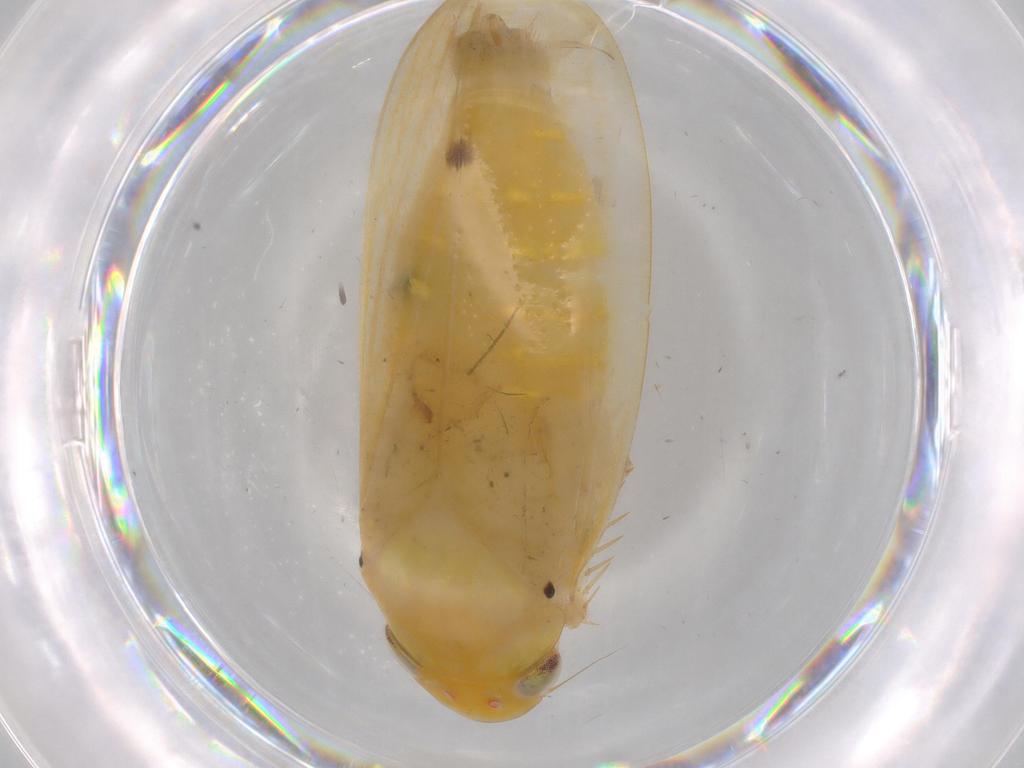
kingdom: Animalia
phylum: Arthropoda
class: Insecta
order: Hemiptera
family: Cicadellidae
